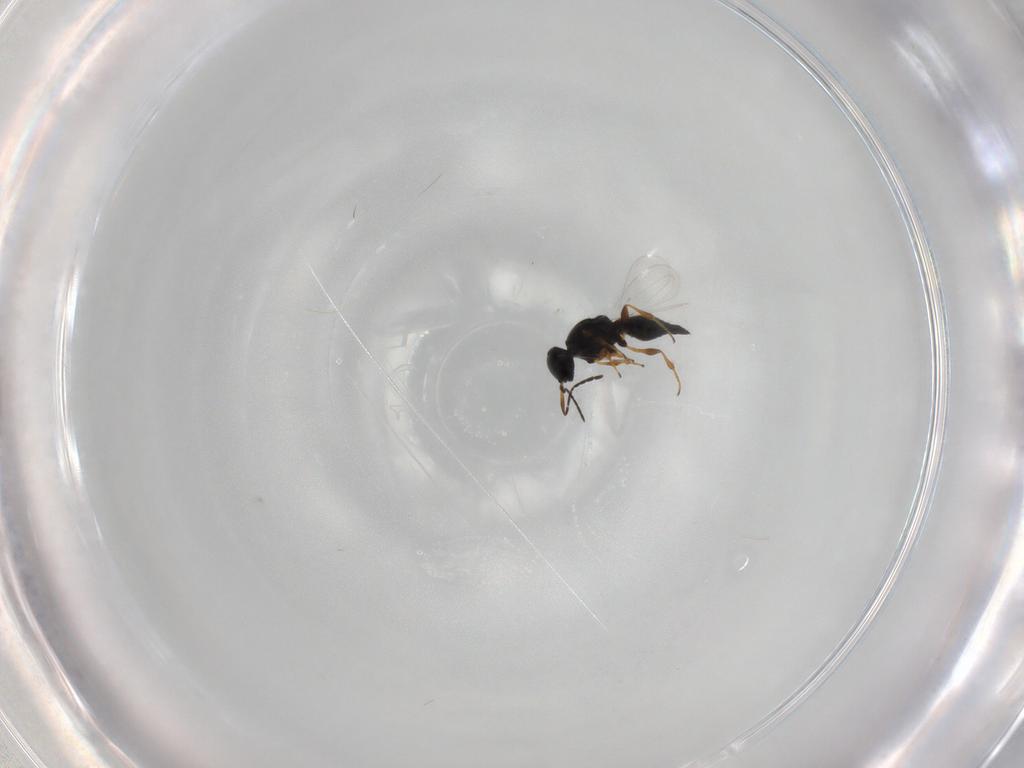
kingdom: Animalia
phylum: Arthropoda
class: Insecta
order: Hymenoptera
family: Platygastridae
